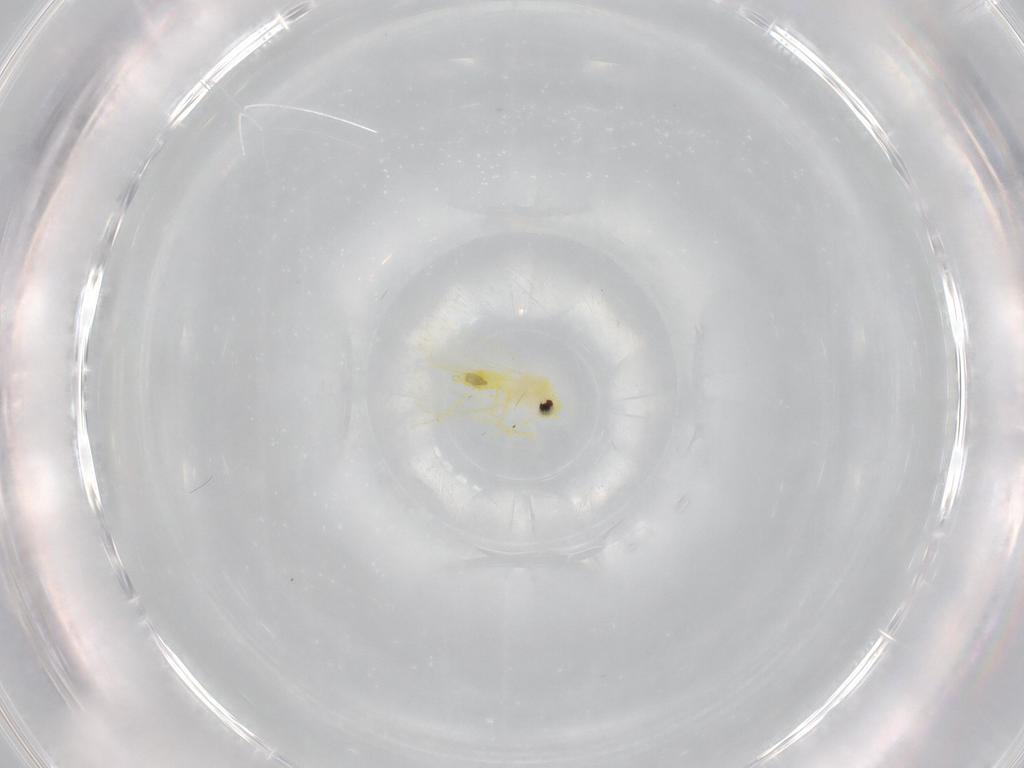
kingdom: Animalia
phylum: Arthropoda
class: Insecta
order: Hemiptera
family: Aleyrodidae
